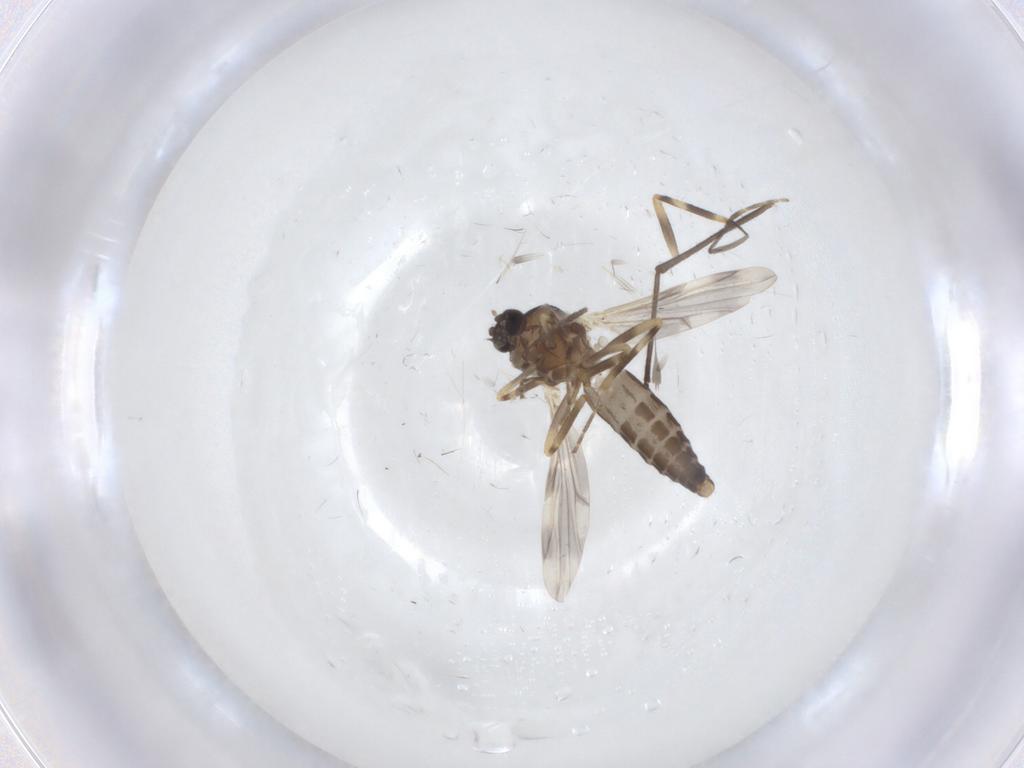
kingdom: Animalia
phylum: Arthropoda
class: Insecta
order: Diptera
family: Ceratopogonidae
